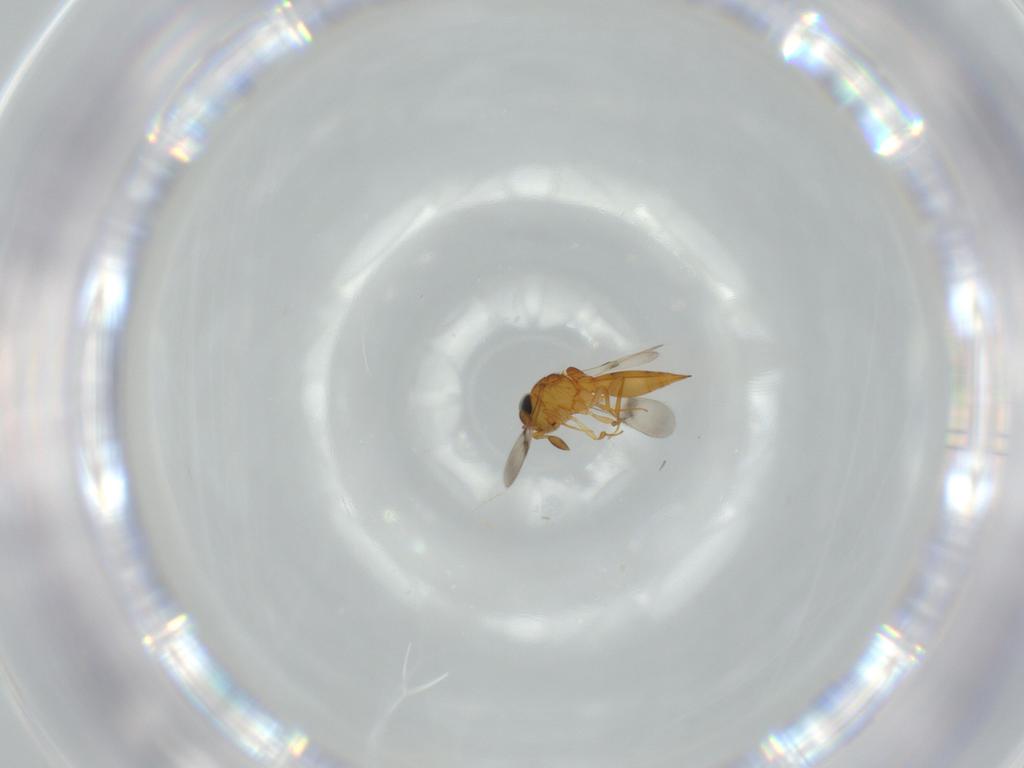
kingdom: Animalia
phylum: Arthropoda
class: Insecta
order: Hymenoptera
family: Scelionidae
